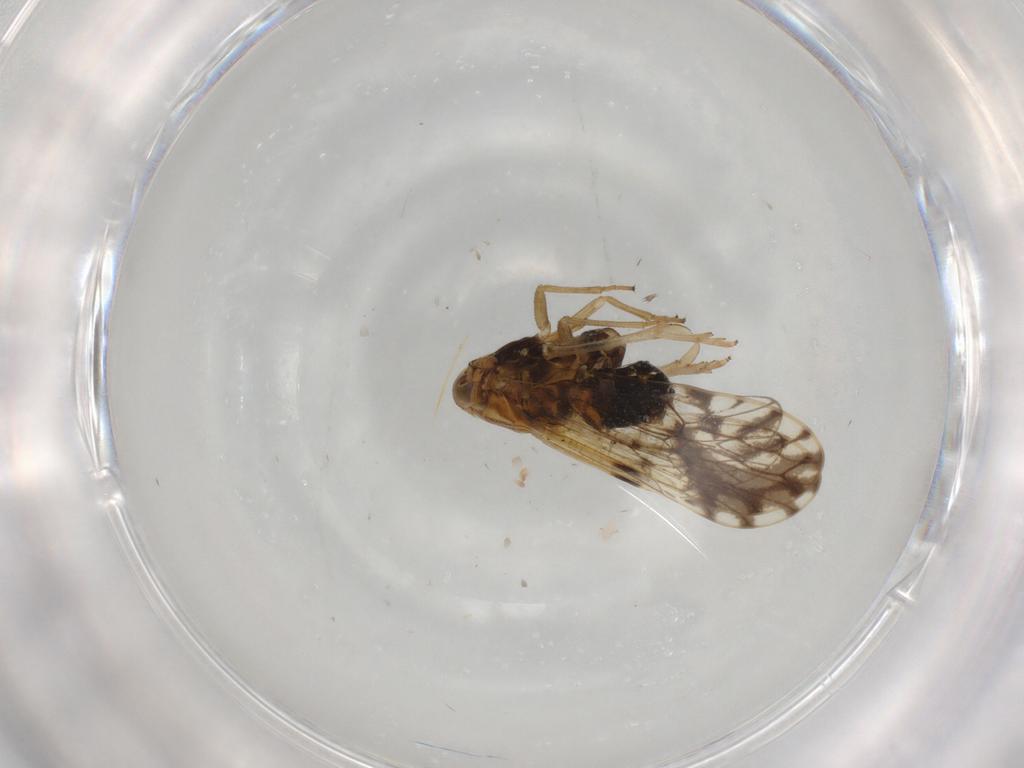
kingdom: Animalia
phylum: Arthropoda
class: Insecta
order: Hemiptera
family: Delphacidae
